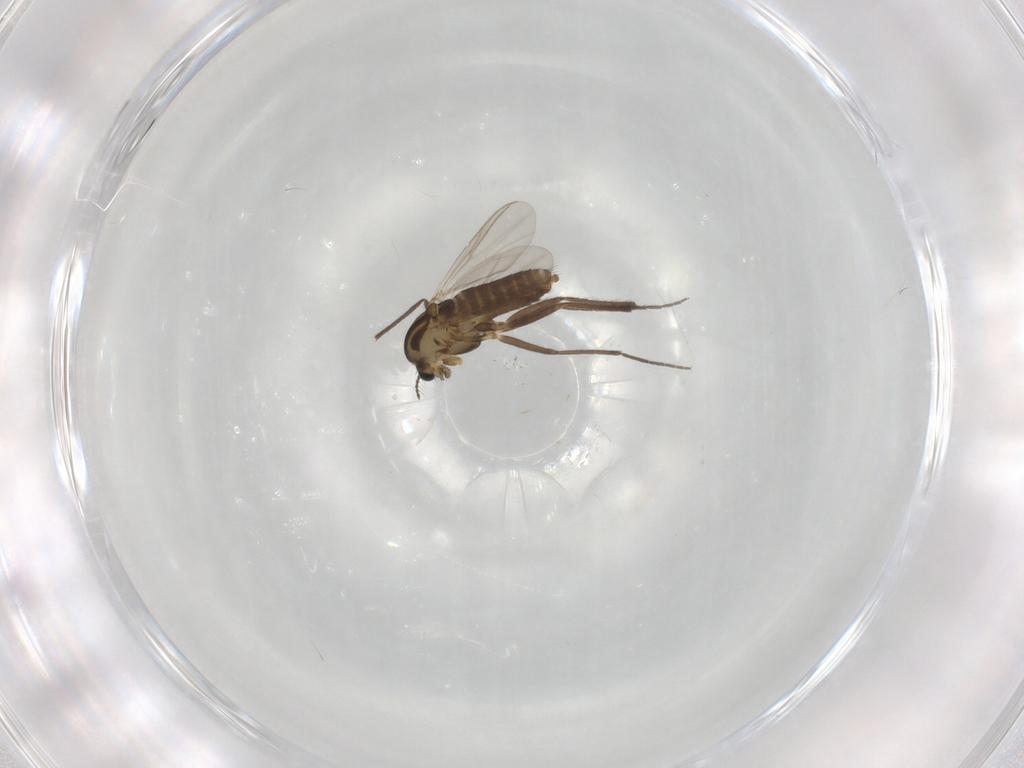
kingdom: Animalia
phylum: Arthropoda
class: Insecta
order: Diptera
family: Chironomidae
